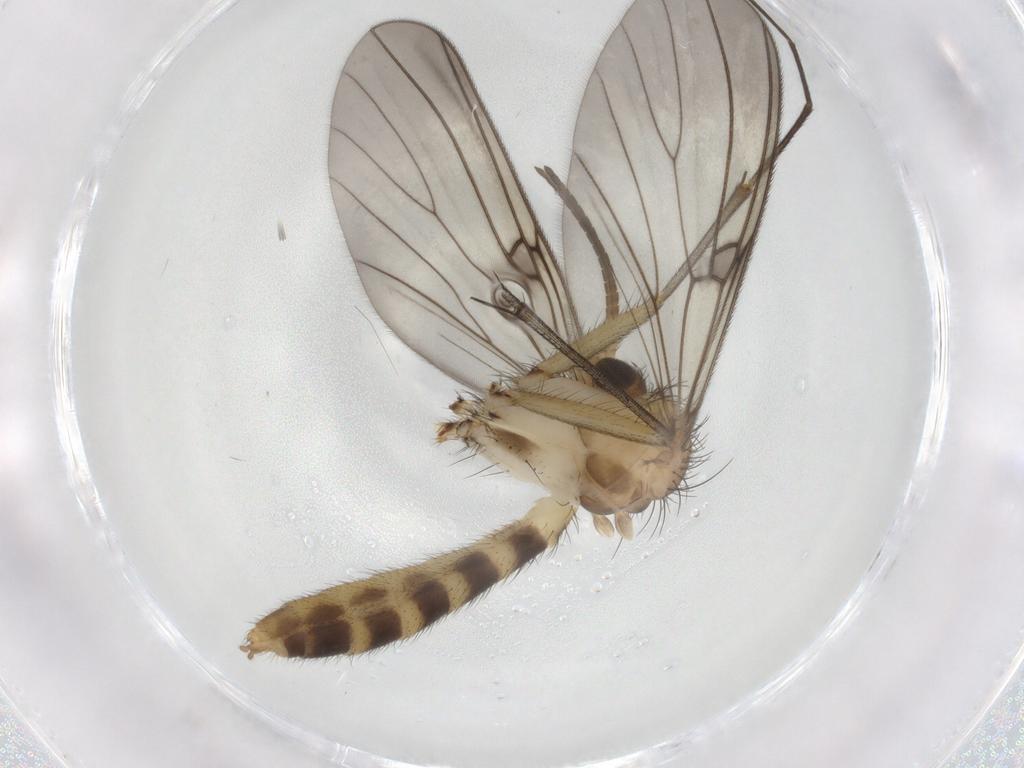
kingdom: Animalia
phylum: Arthropoda
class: Insecta
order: Diptera
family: Mycetophilidae
